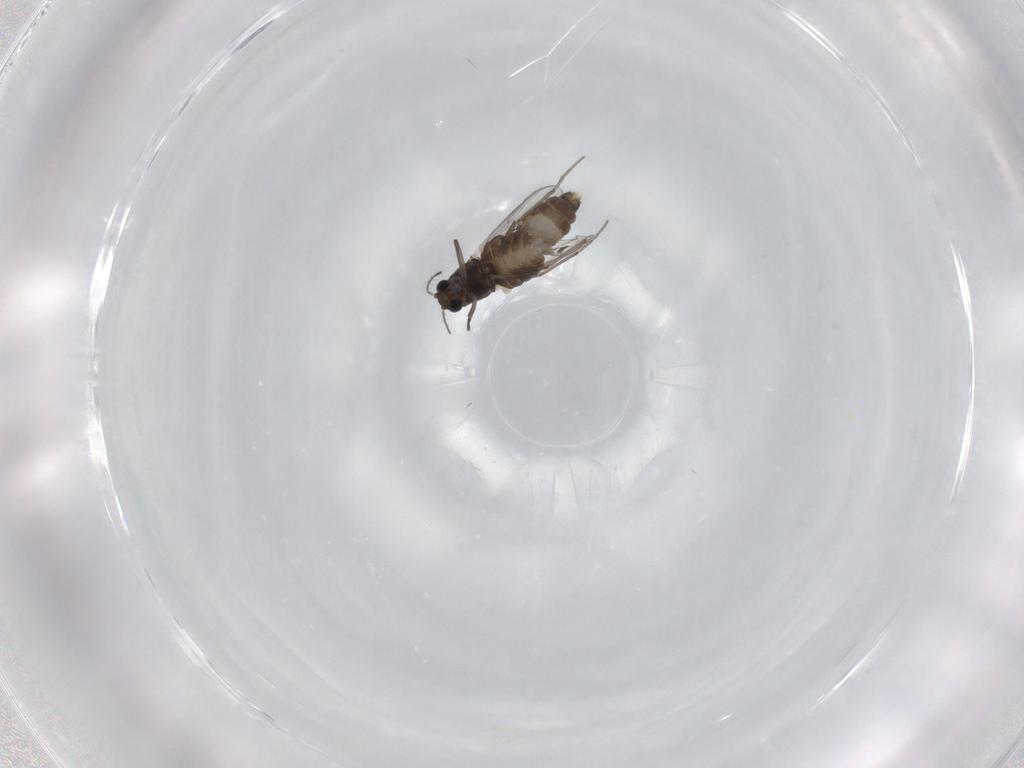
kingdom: Animalia
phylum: Arthropoda
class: Insecta
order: Diptera
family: Chironomidae
